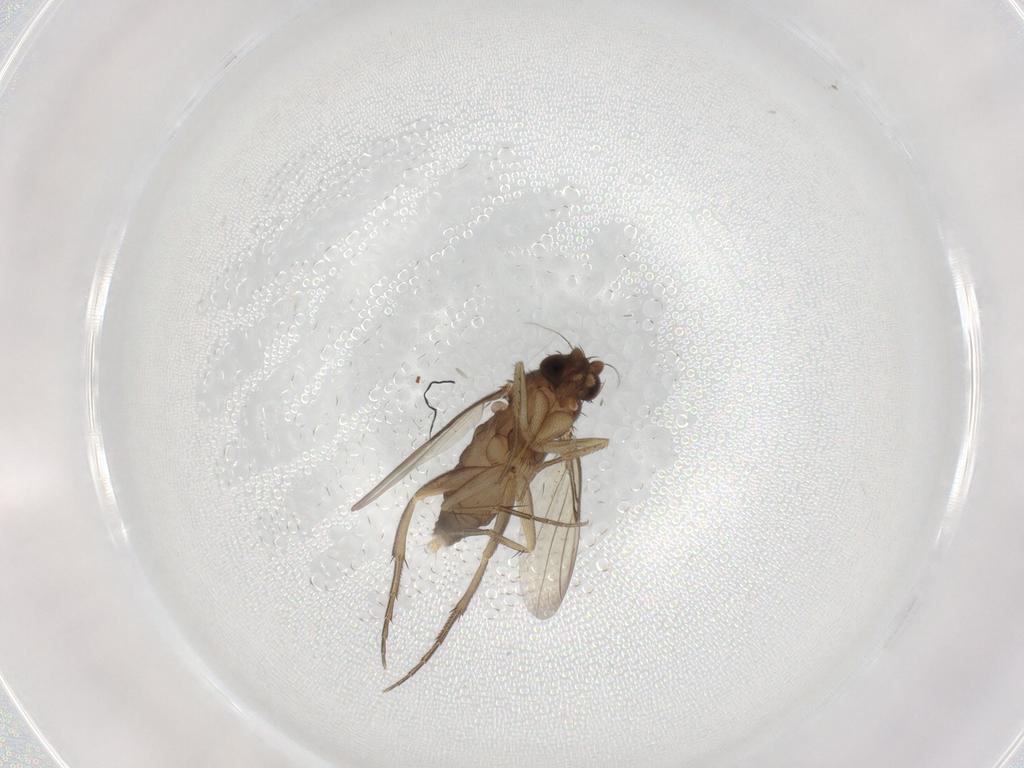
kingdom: Animalia
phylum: Arthropoda
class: Insecta
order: Diptera
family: Phoridae
